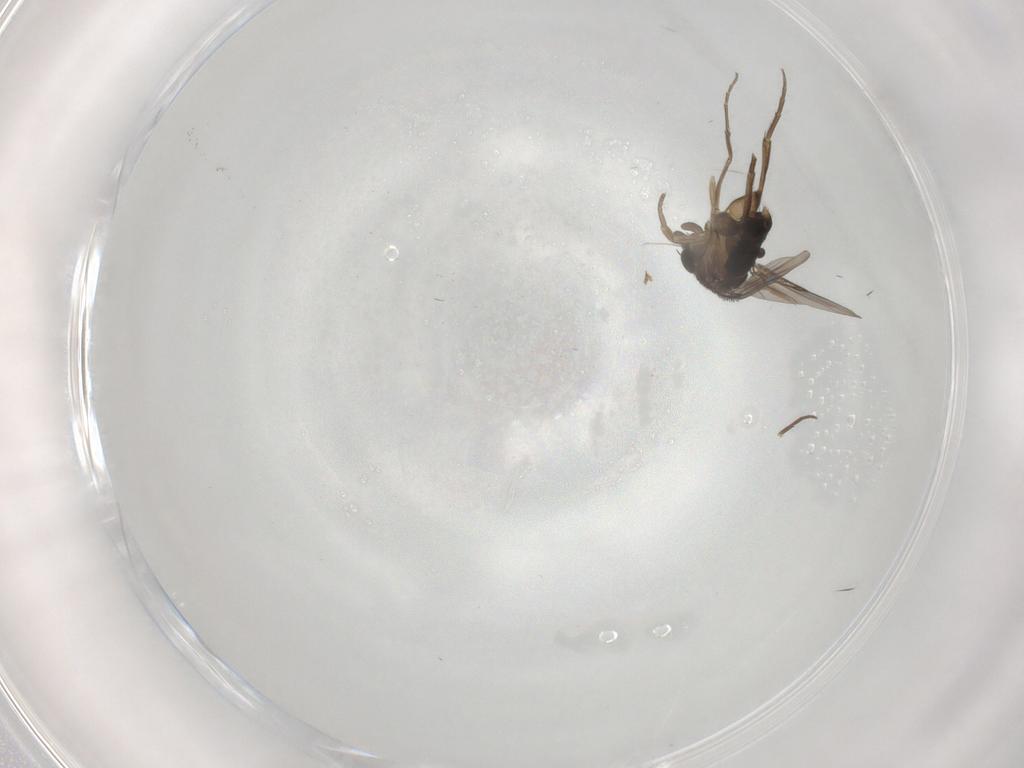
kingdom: Animalia
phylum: Arthropoda
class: Insecta
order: Diptera
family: Phoridae
